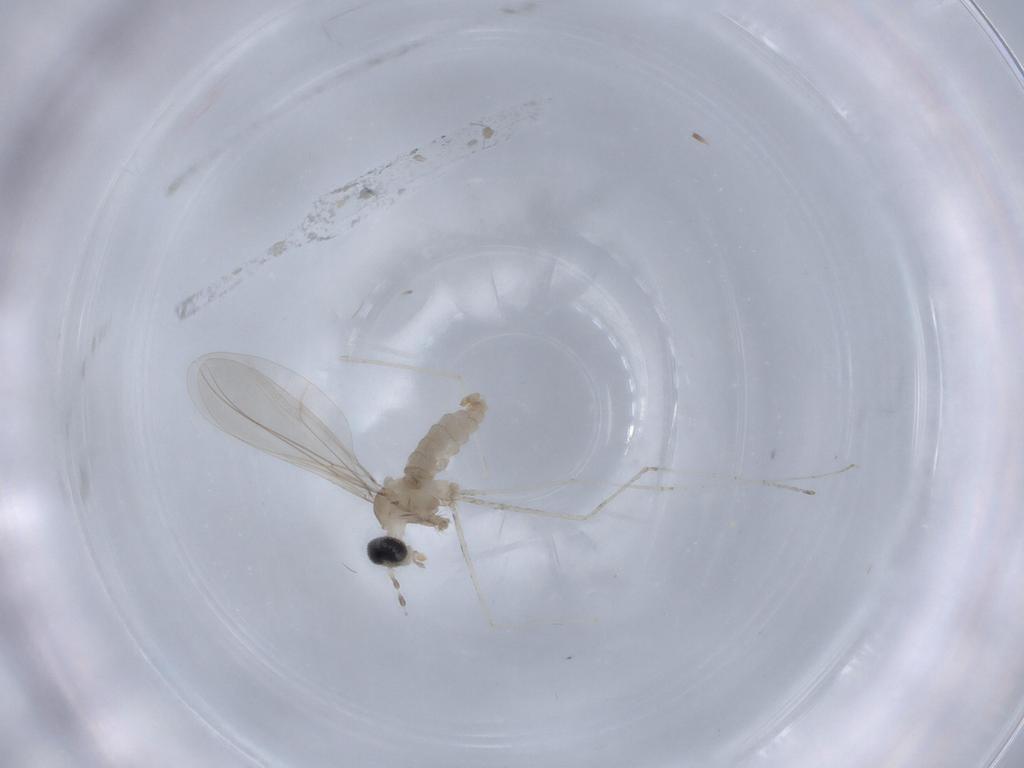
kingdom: Animalia
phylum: Arthropoda
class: Insecta
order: Diptera
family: Cecidomyiidae
